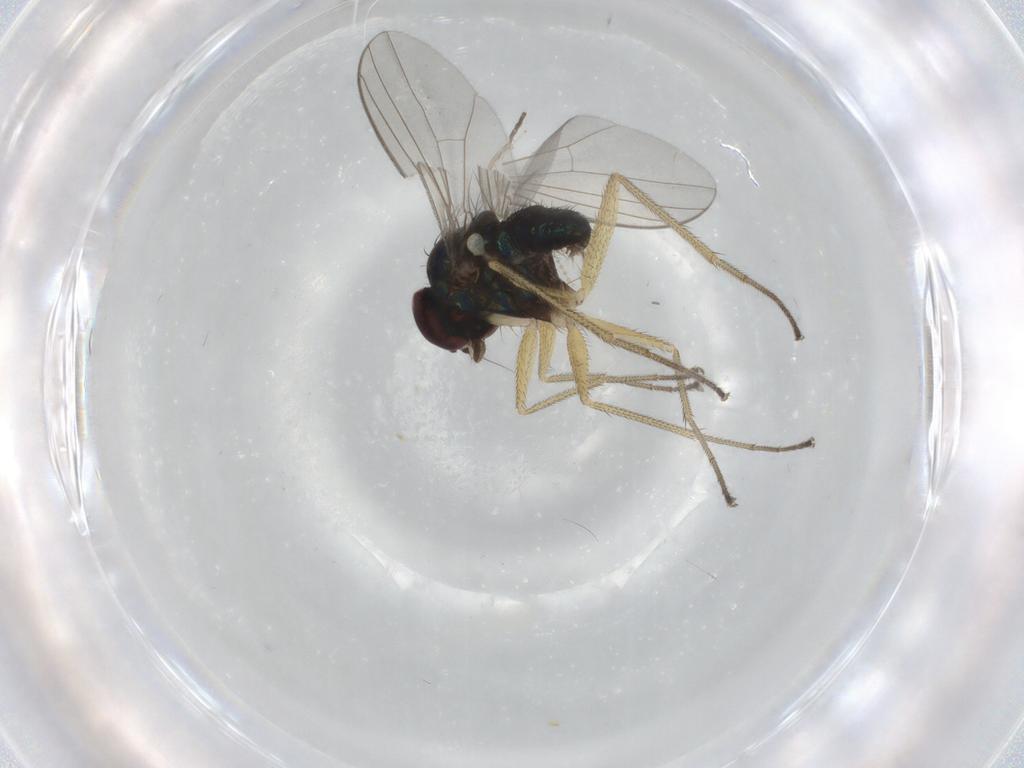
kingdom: Animalia
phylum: Arthropoda
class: Insecta
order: Diptera
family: Dolichopodidae
